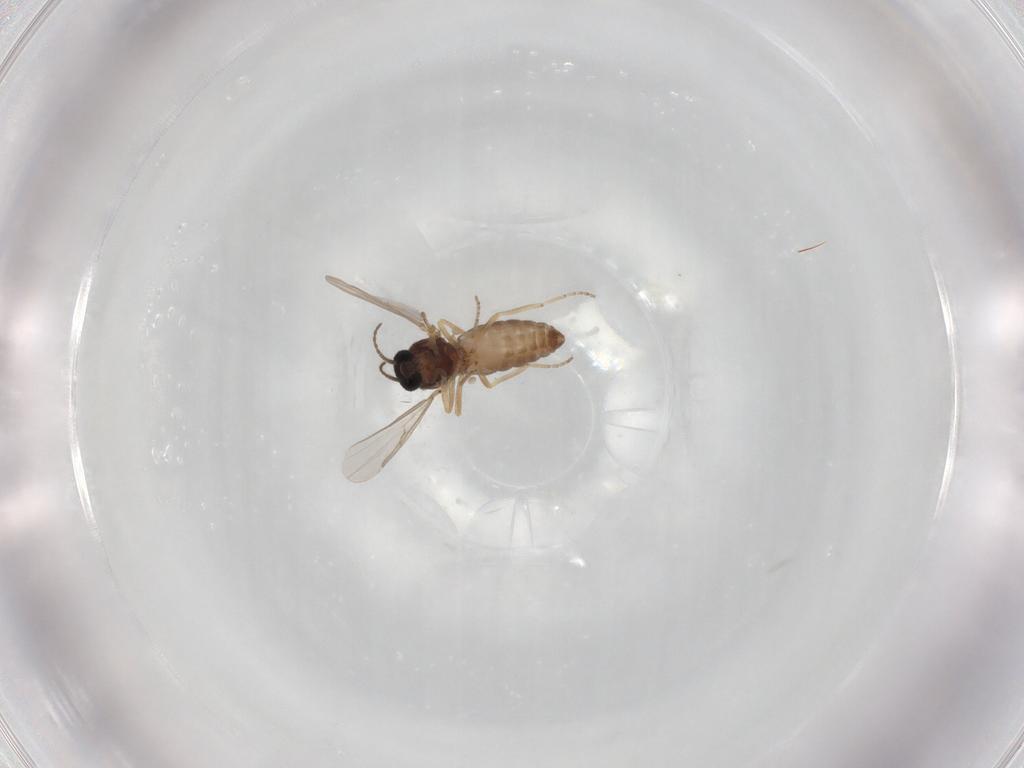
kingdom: Animalia
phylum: Arthropoda
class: Insecta
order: Diptera
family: Ceratopogonidae
